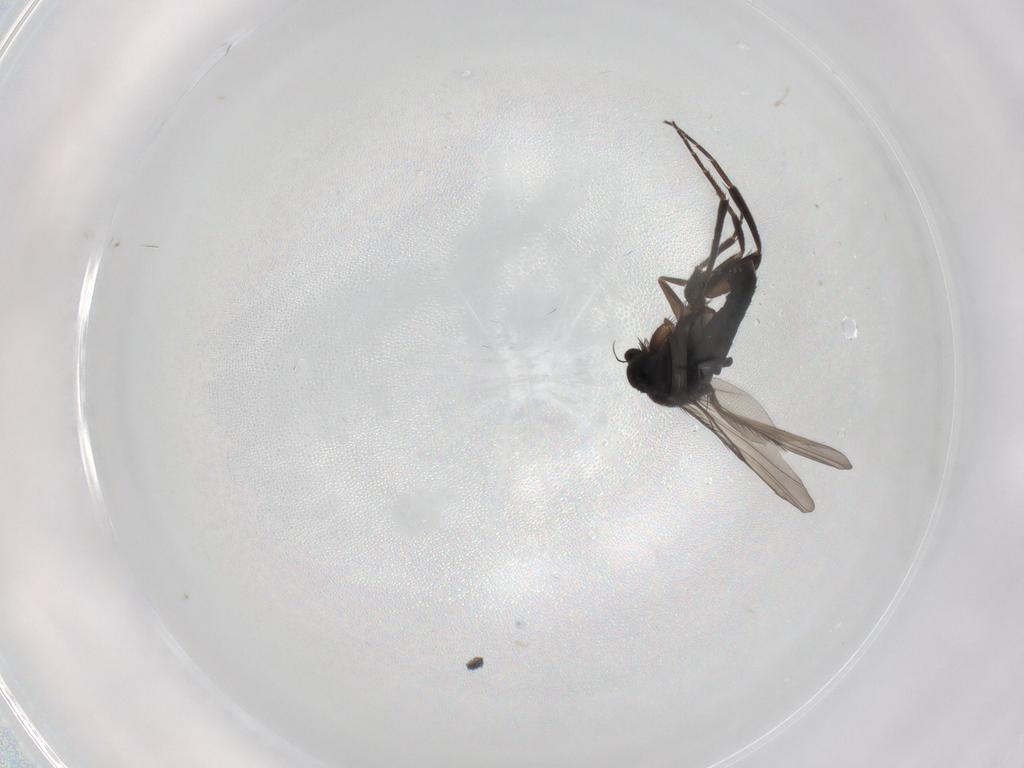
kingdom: Animalia
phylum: Arthropoda
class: Insecta
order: Diptera
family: Phoridae
